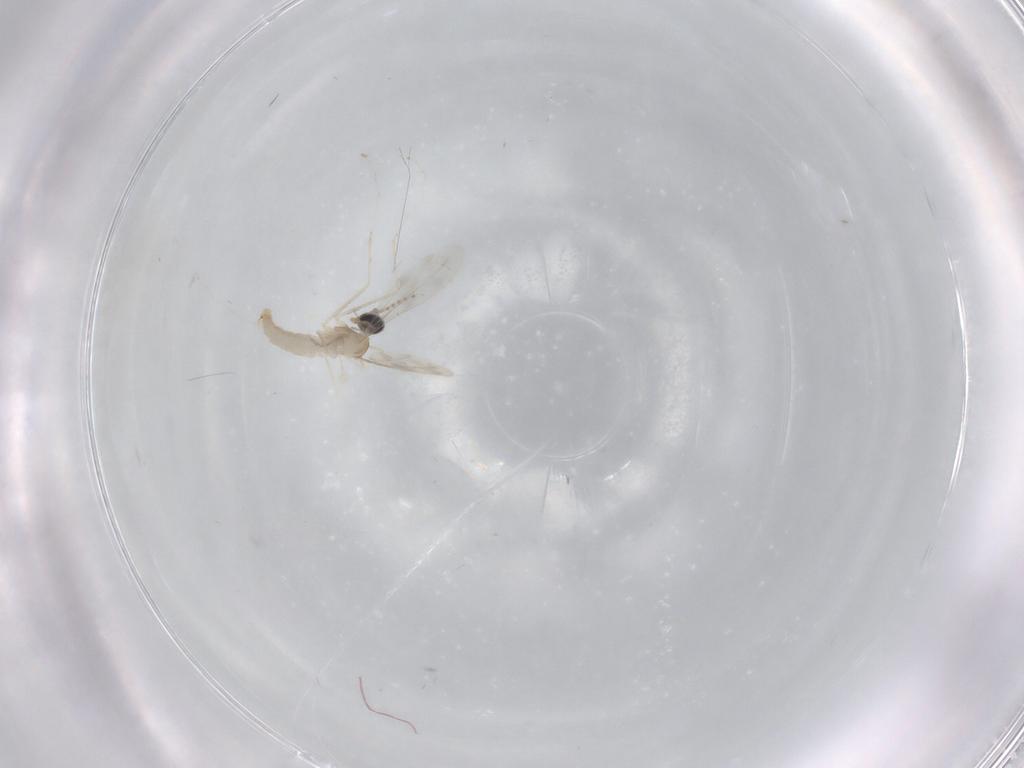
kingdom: Animalia
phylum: Arthropoda
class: Insecta
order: Diptera
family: Cecidomyiidae
